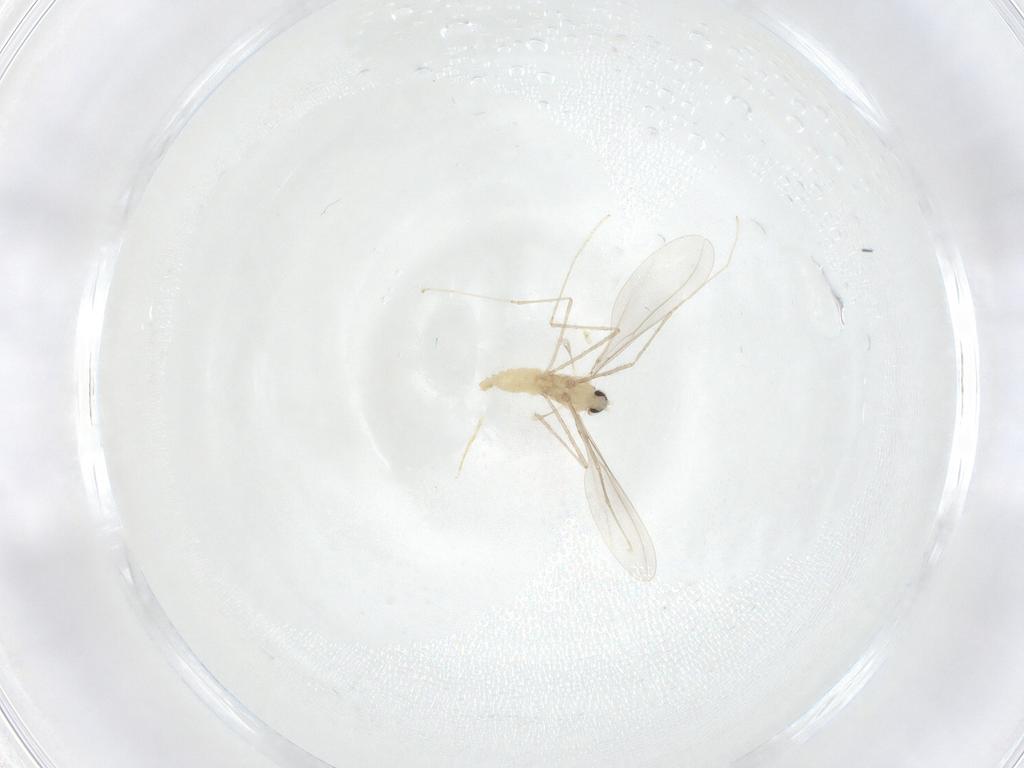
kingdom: Animalia
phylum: Arthropoda
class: Insecta
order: Diptera
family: Cecidomyiidae
